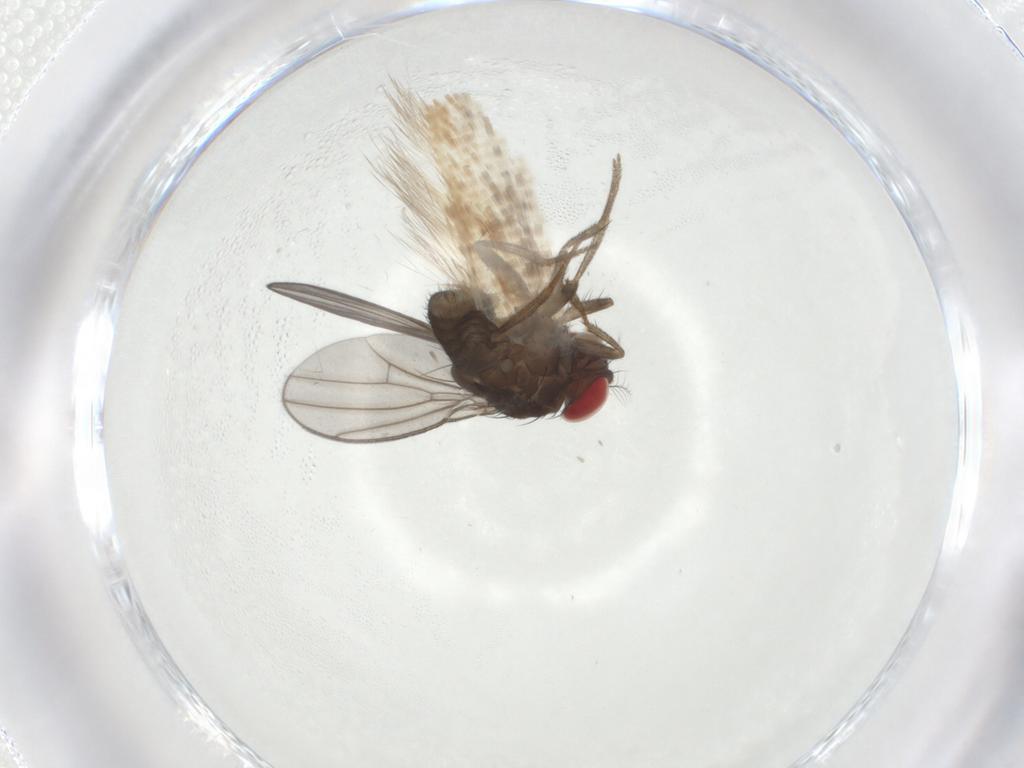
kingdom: Animalia
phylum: Arthropoda
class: Insecta
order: Diptera
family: Drosophilidae
